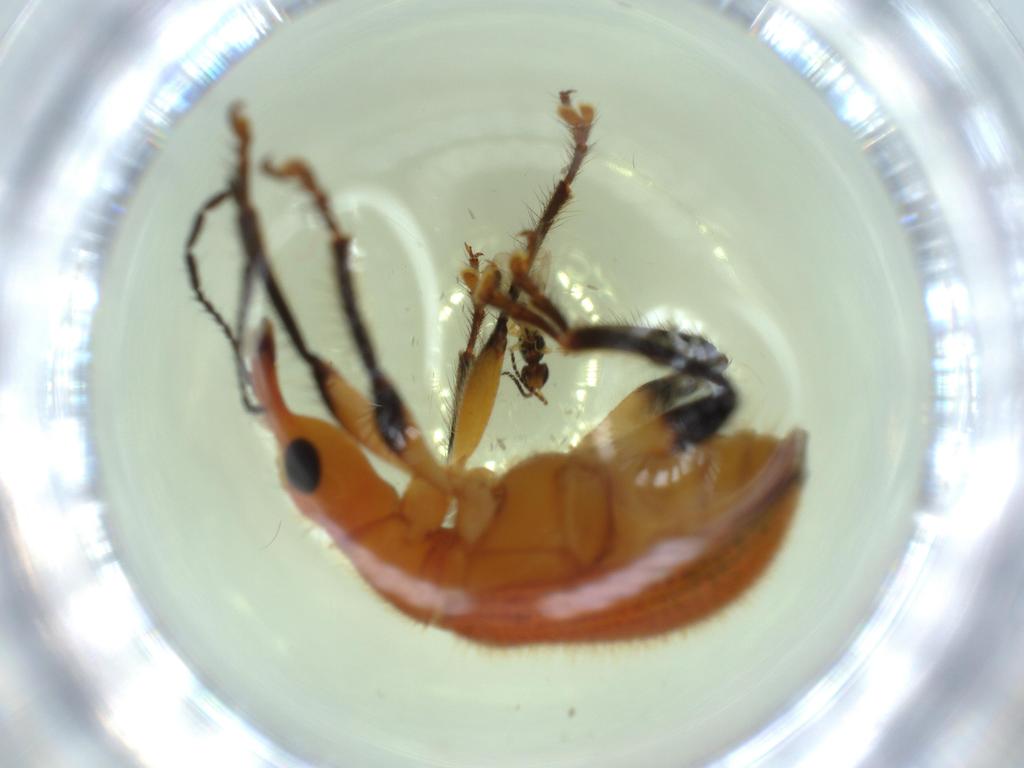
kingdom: Animalia
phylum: Arthropoda
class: Insecta
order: Coleoptera
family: Attelabidae
